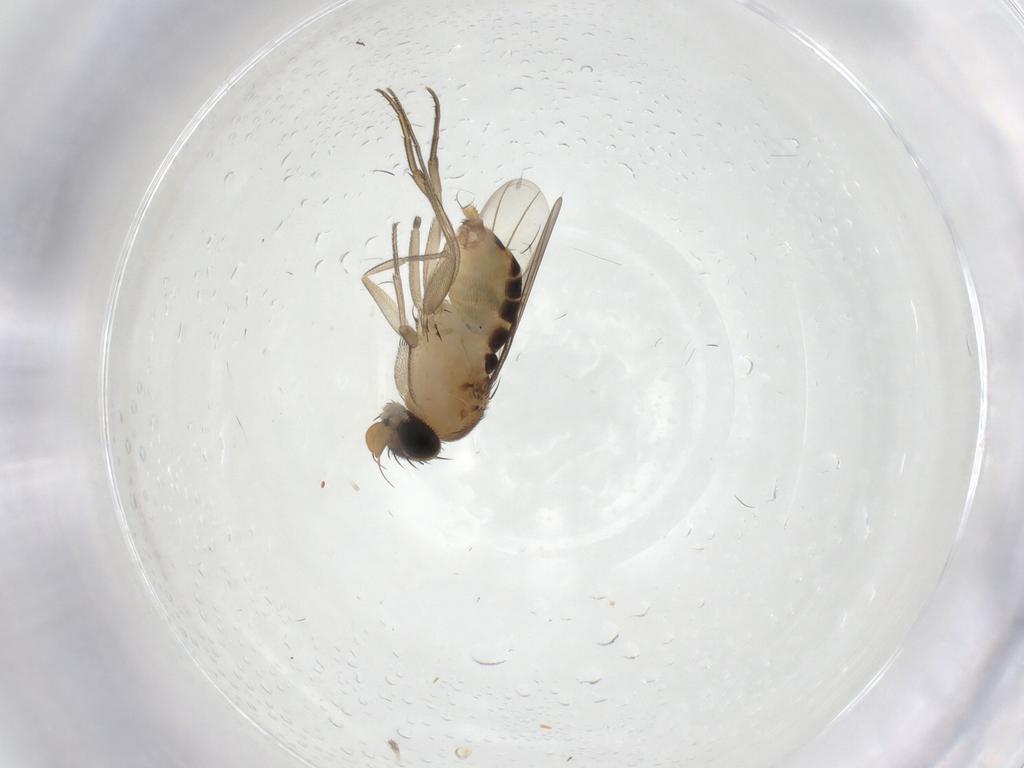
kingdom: Animalia
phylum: Arthropoda
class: Insecta
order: Diptera
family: Phoridae
